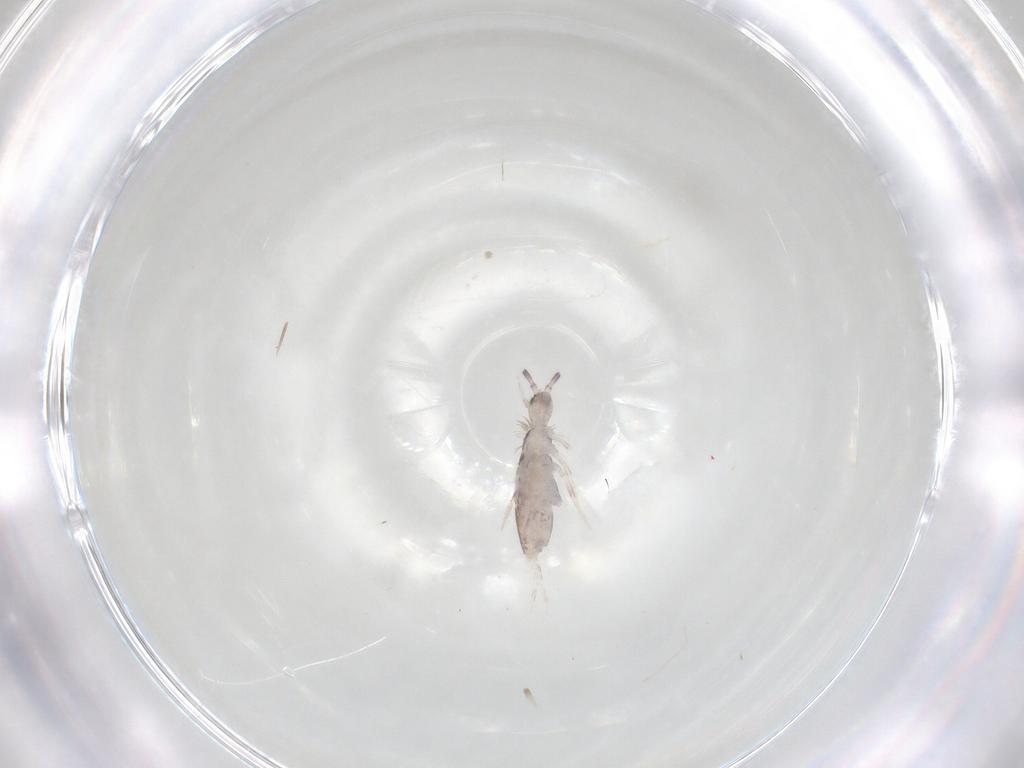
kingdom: Animalia
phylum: Arthropoda
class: Collembola
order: Entomobryomorpha
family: Entomobryidae
